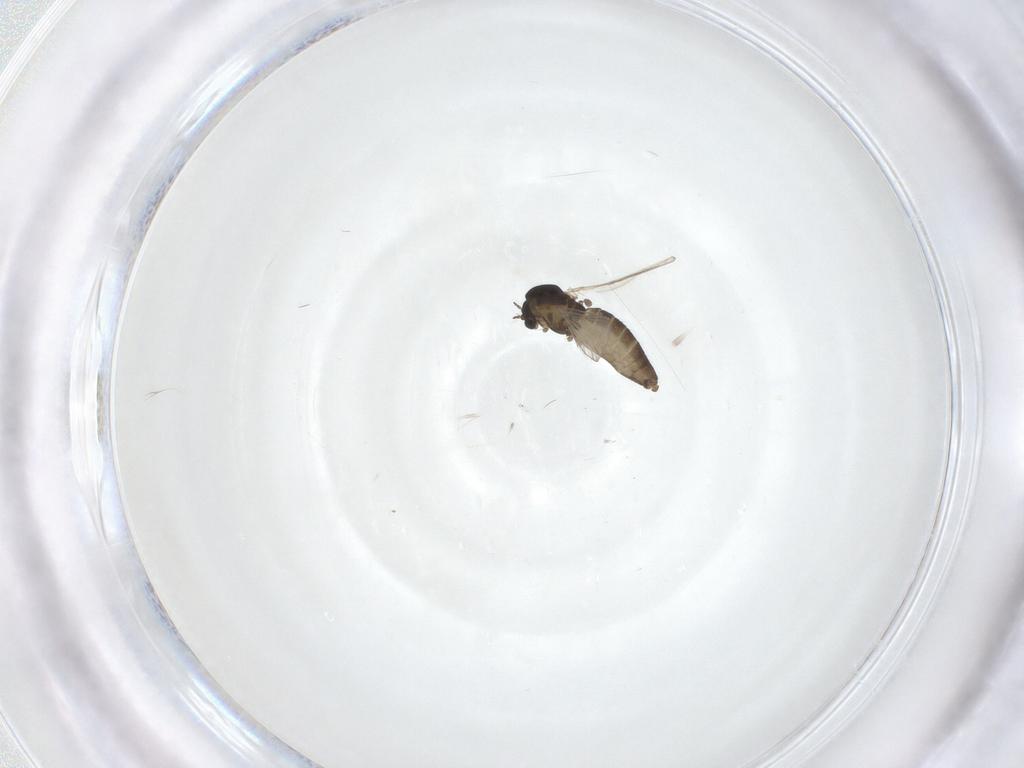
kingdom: Animalia
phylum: Arthropoda
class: Insecta
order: Diptera
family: Chironomidae
